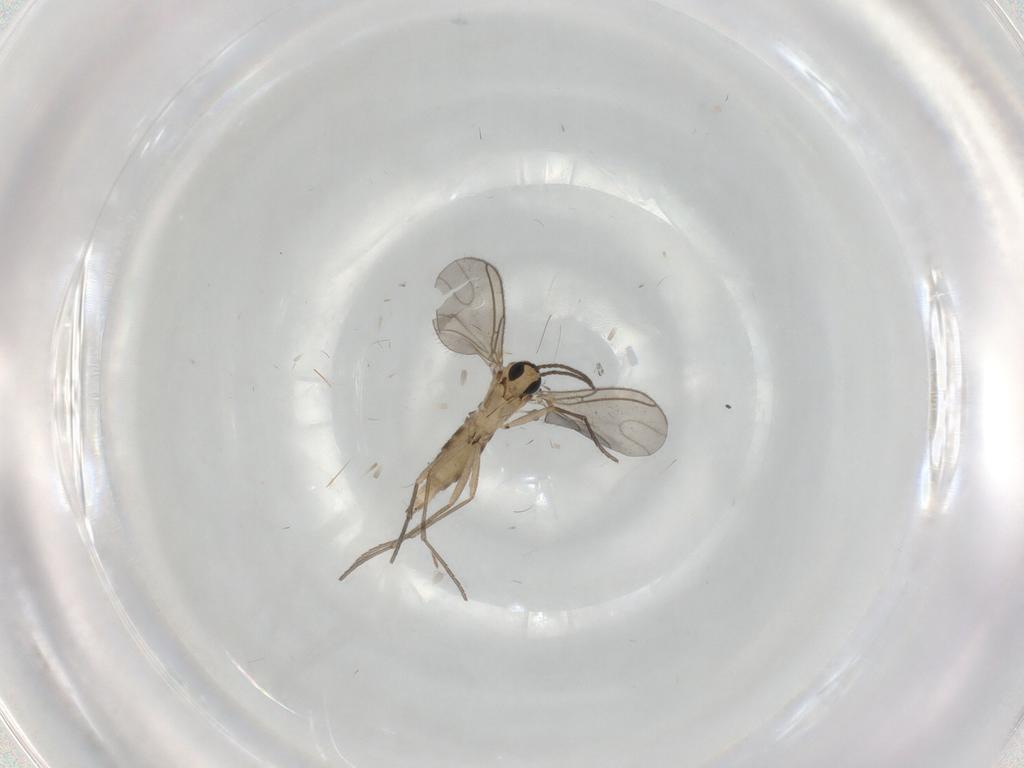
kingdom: Animalia
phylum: Arthropoda
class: Insecta
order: Diptera
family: Sciaridae
